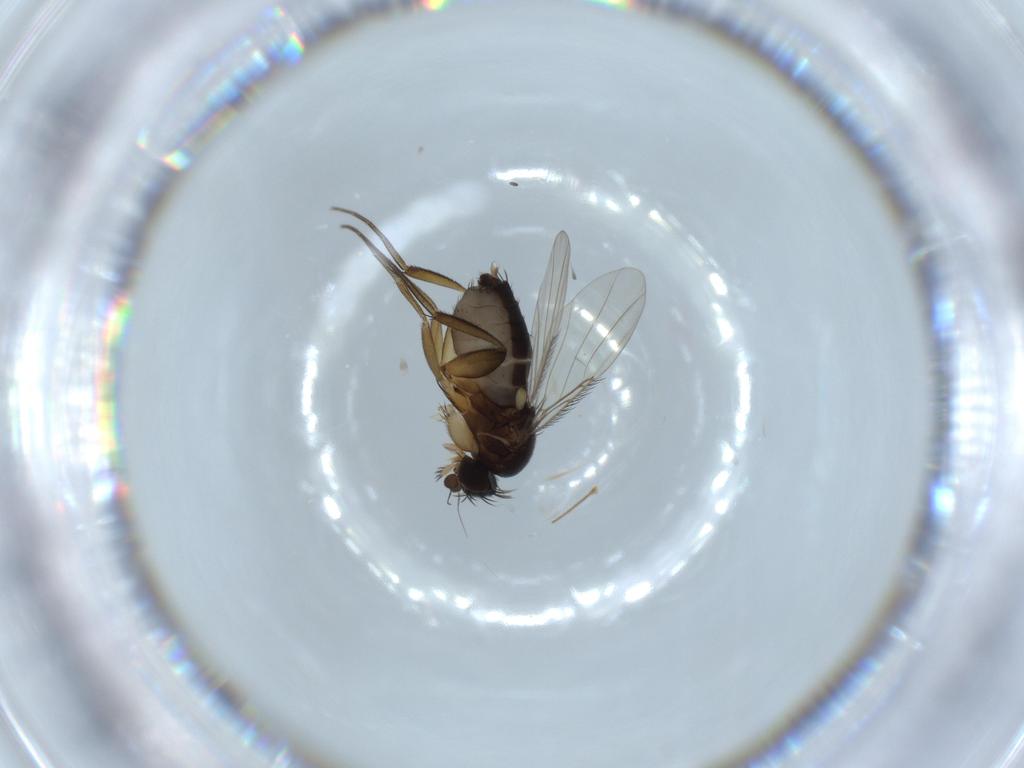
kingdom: Animalia
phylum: Arthropoda
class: Insecta
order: Diptera
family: Phoridae
